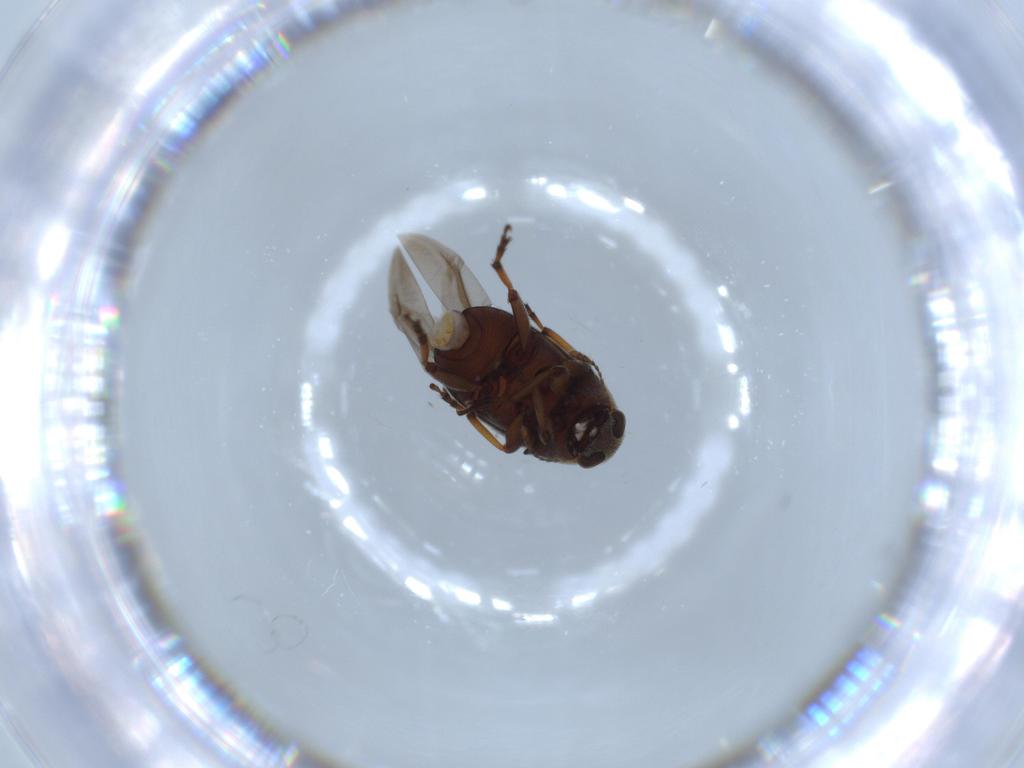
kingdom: Animalia
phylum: Arthropoda
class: Insecta
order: Coleoptera
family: Anthribidae
